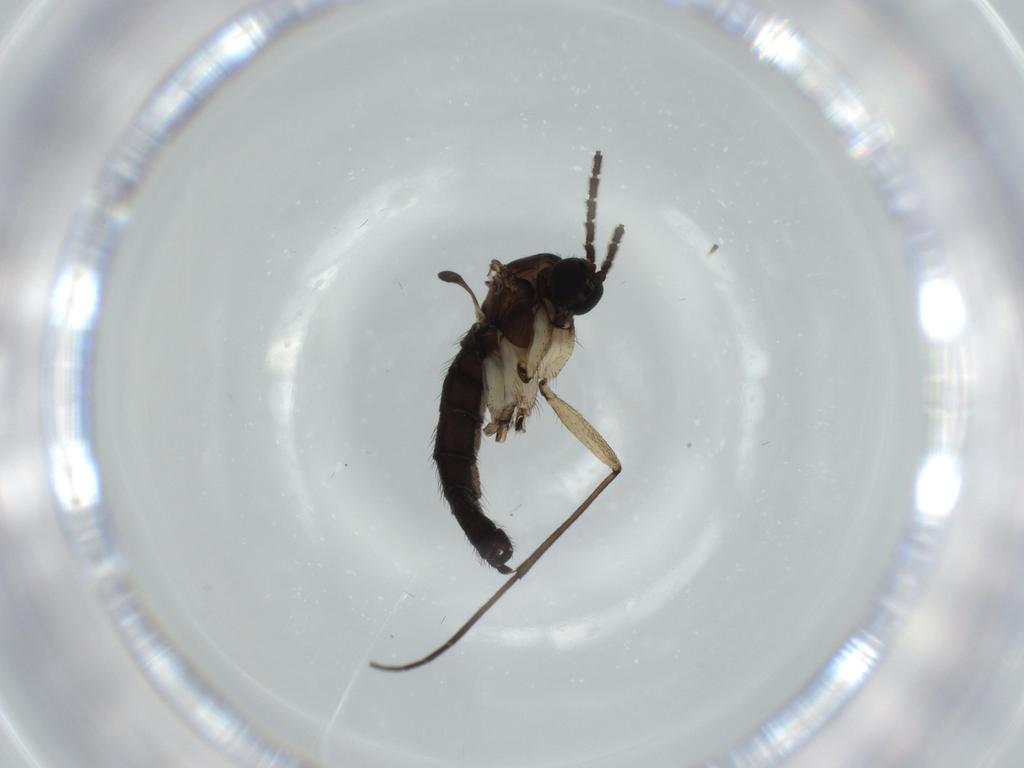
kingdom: Animalia
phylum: Arthropoda
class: Insecta
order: Diptera
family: Sciaridae
